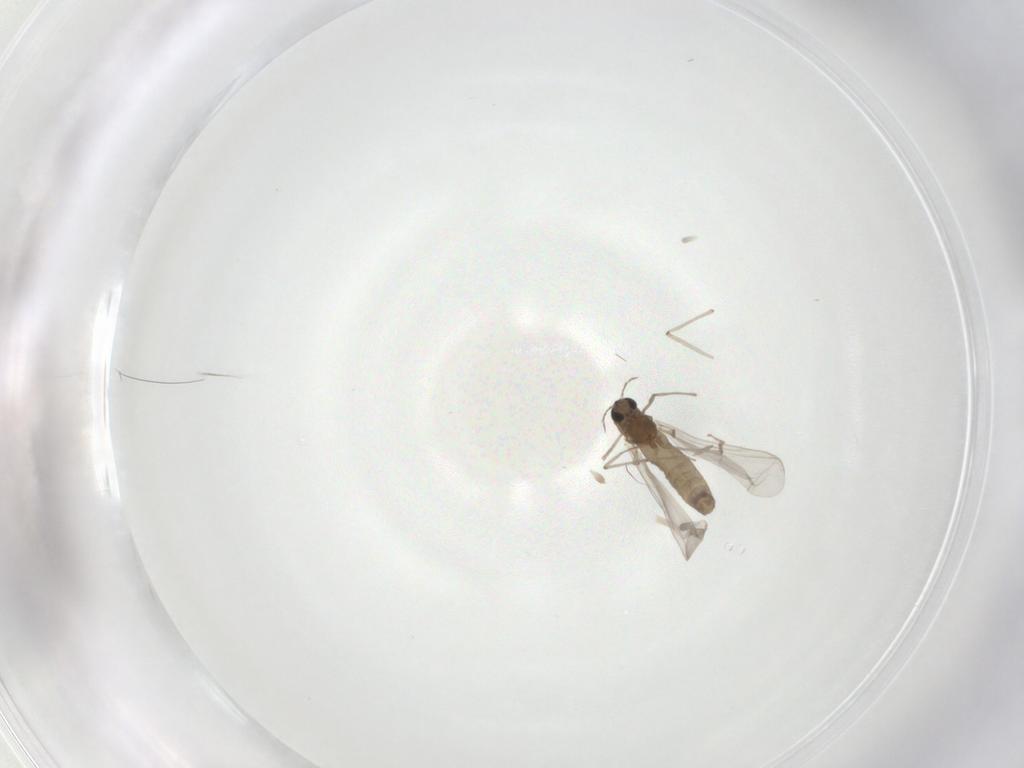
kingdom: Animalia
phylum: Arthropoda
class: Insecta
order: Diptera
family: Chironomidae
